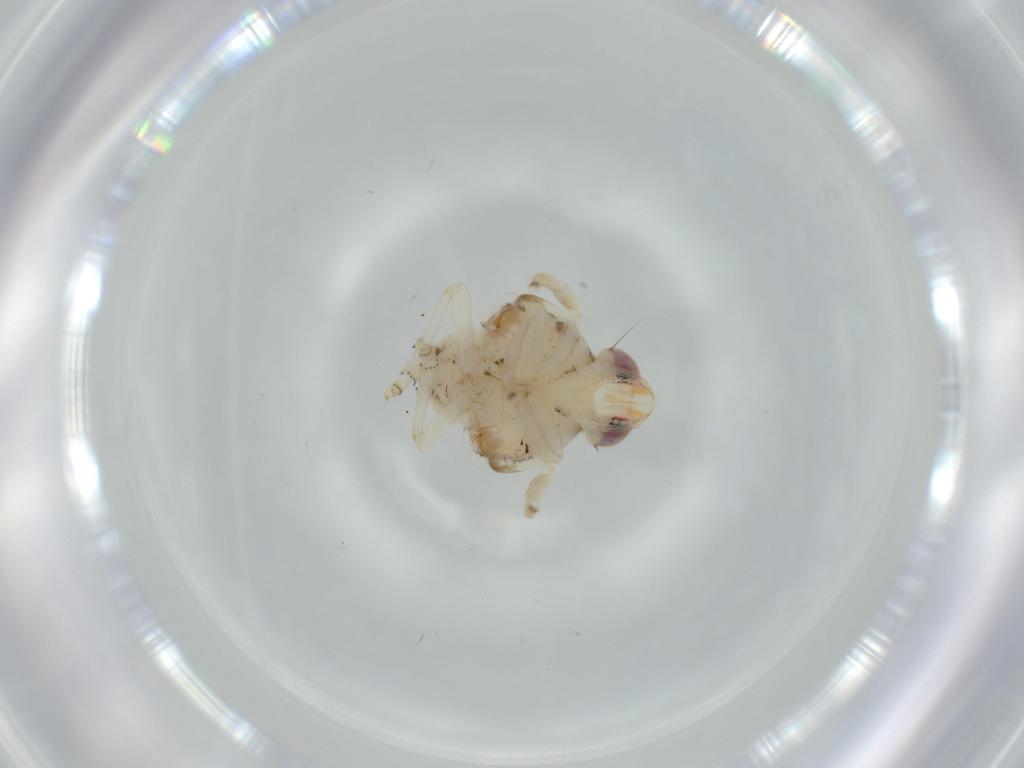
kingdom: Animalia
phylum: Arthropoda
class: Insecta
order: Hemiptera
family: Nogodinidae
